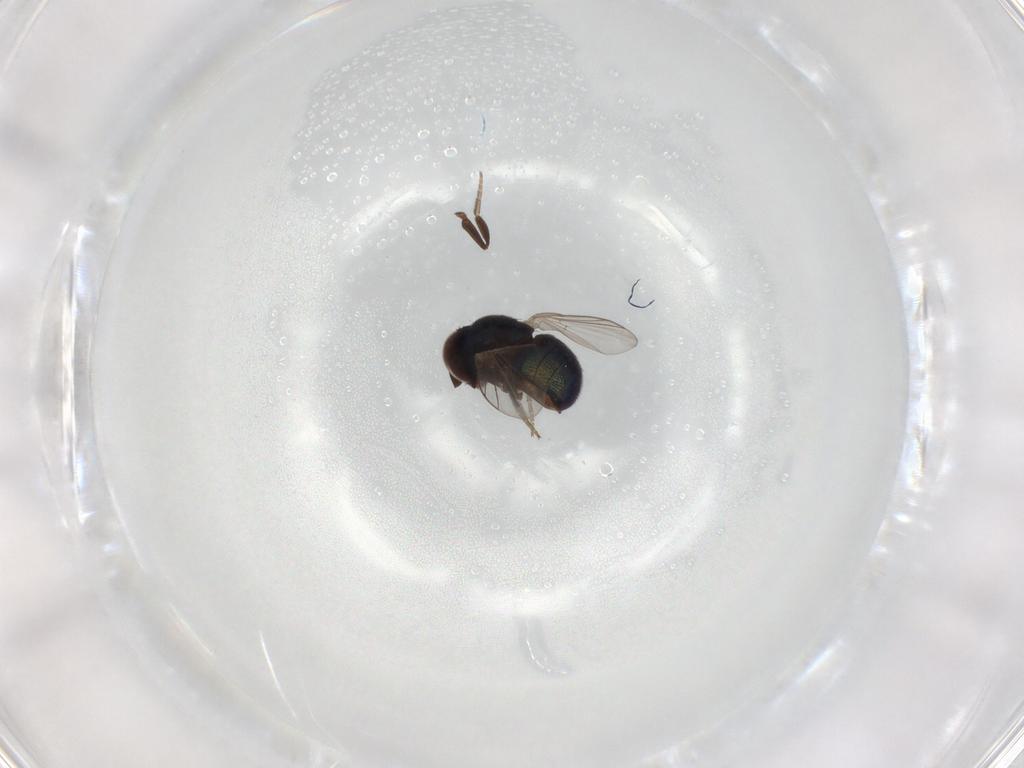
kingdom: Animalia
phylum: Arthropoda
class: Insecta
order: Diptera
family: Cryptochetidae
